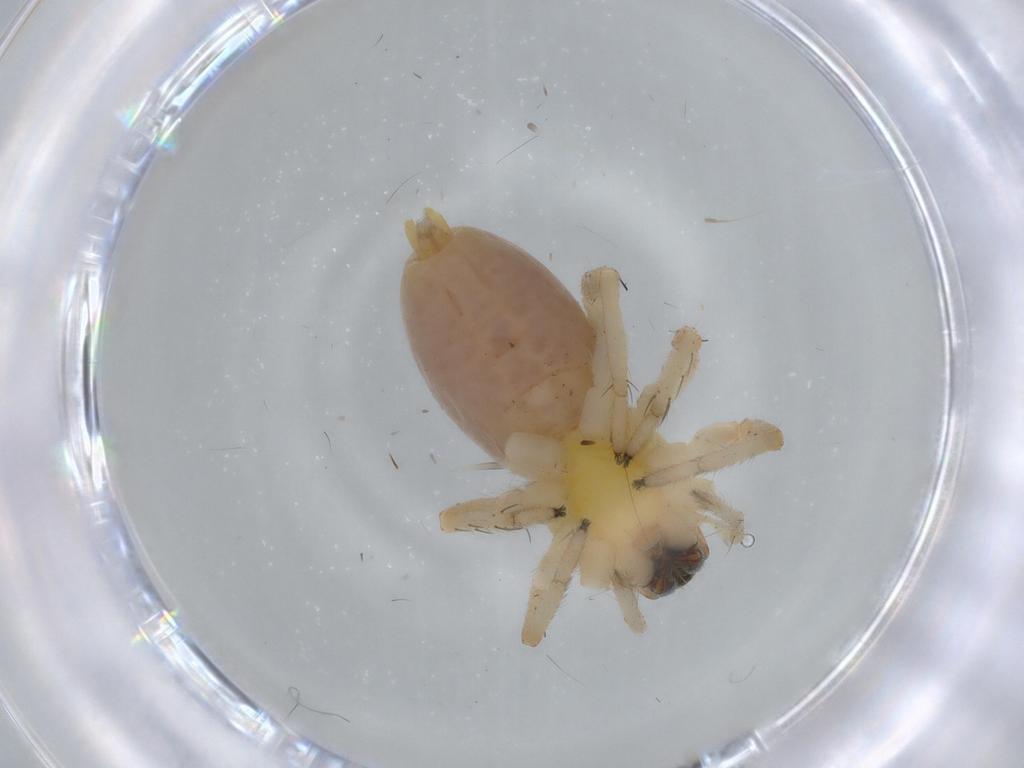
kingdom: Animalia
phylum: Arthropoda
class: Arachnida
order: Araneae
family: Anyphaenidae
